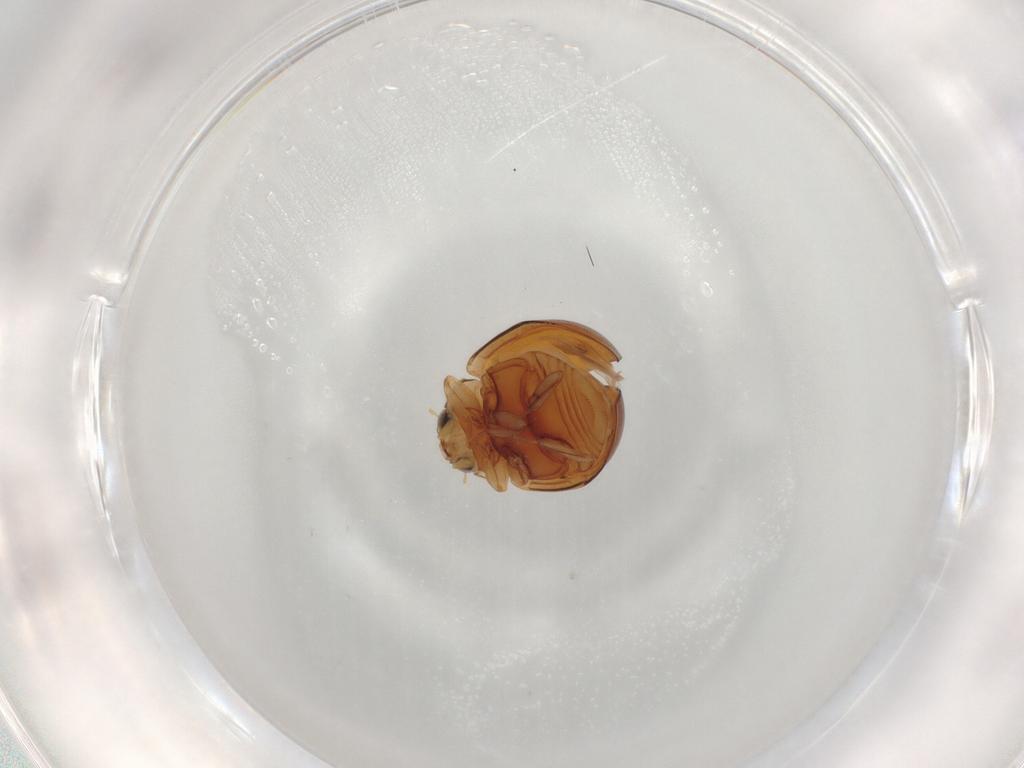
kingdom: Animalia
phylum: Arthropoda
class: Insecta
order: Coleoptera
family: Coccinellidae
